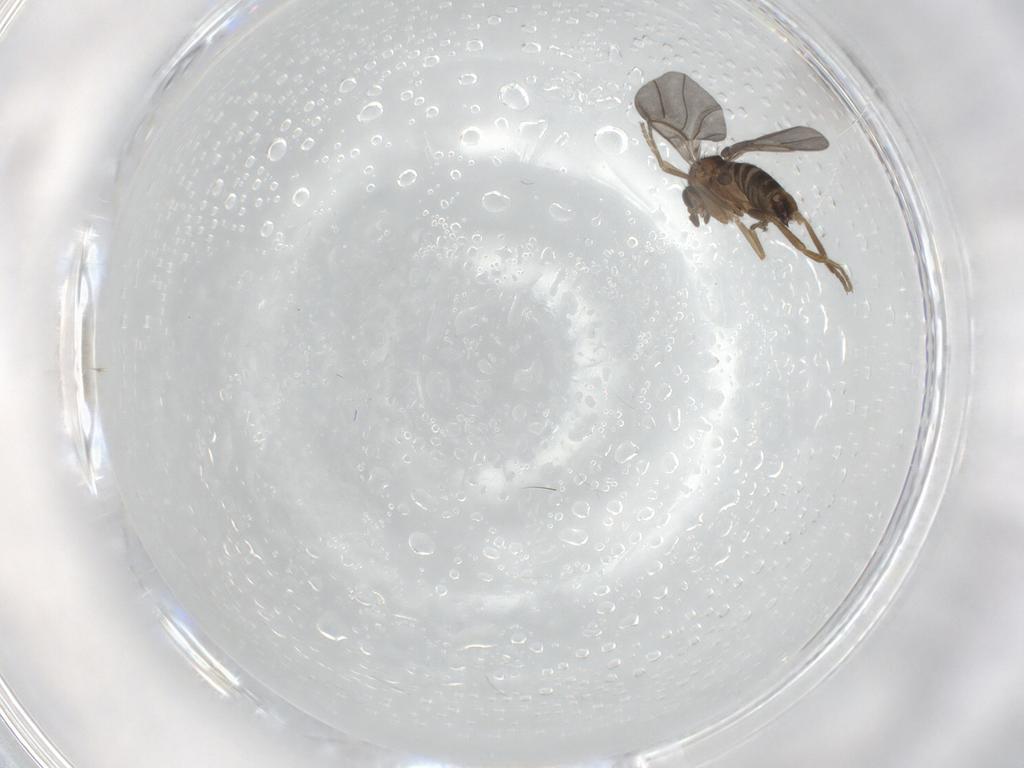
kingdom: Animalia
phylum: Arthropoda
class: Insecta
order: Diptera
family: Phoridae
